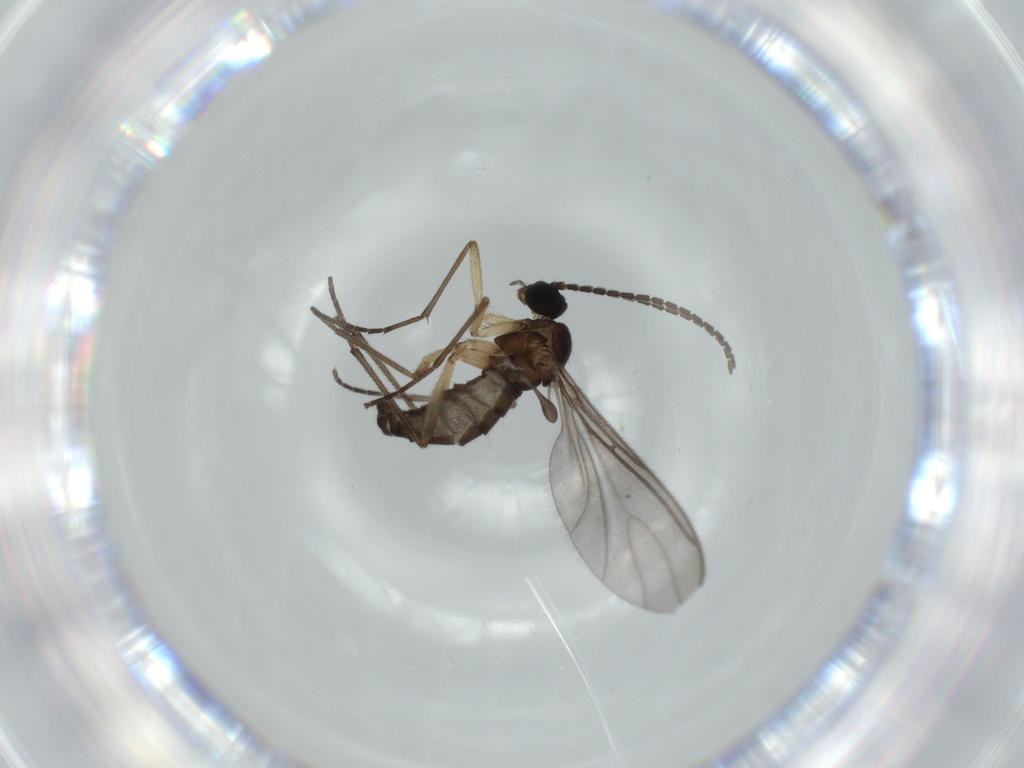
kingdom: Animalia
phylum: Arthropoda
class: Insecta
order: Diptera
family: Sciaridae
